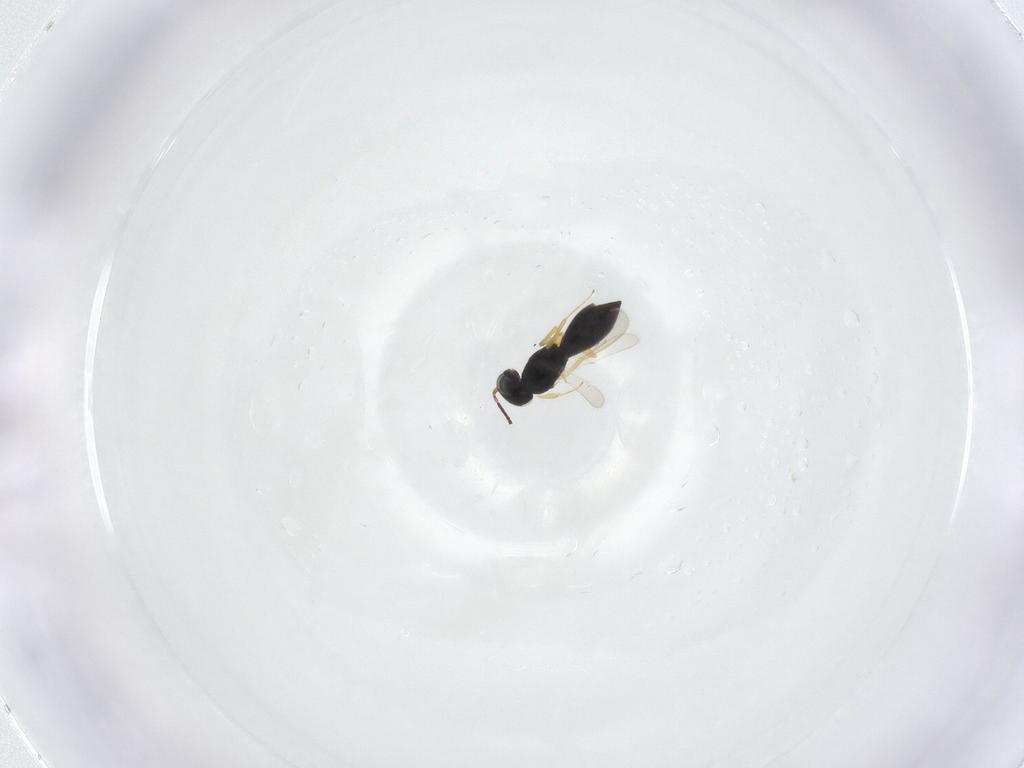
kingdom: Animalia
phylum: Arthropoda
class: Insecta
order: Hymenoptera
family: Scelionidae
